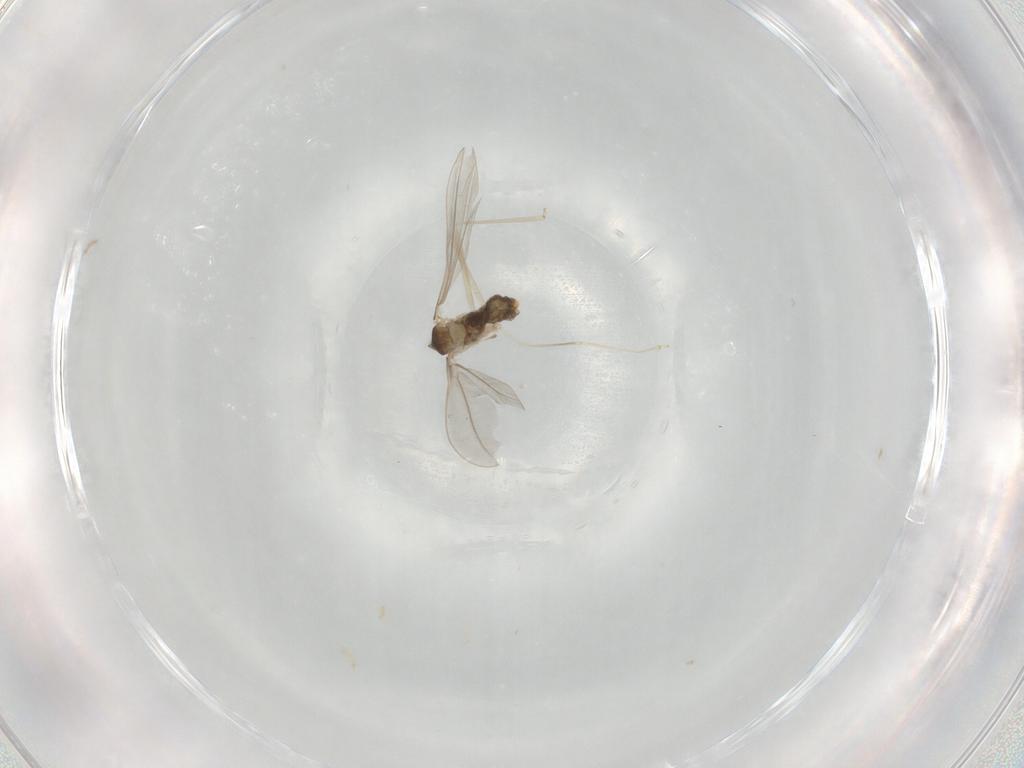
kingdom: Animalia
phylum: Arthropoda
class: Insecta
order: Diptera
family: Cecidomyiidae
